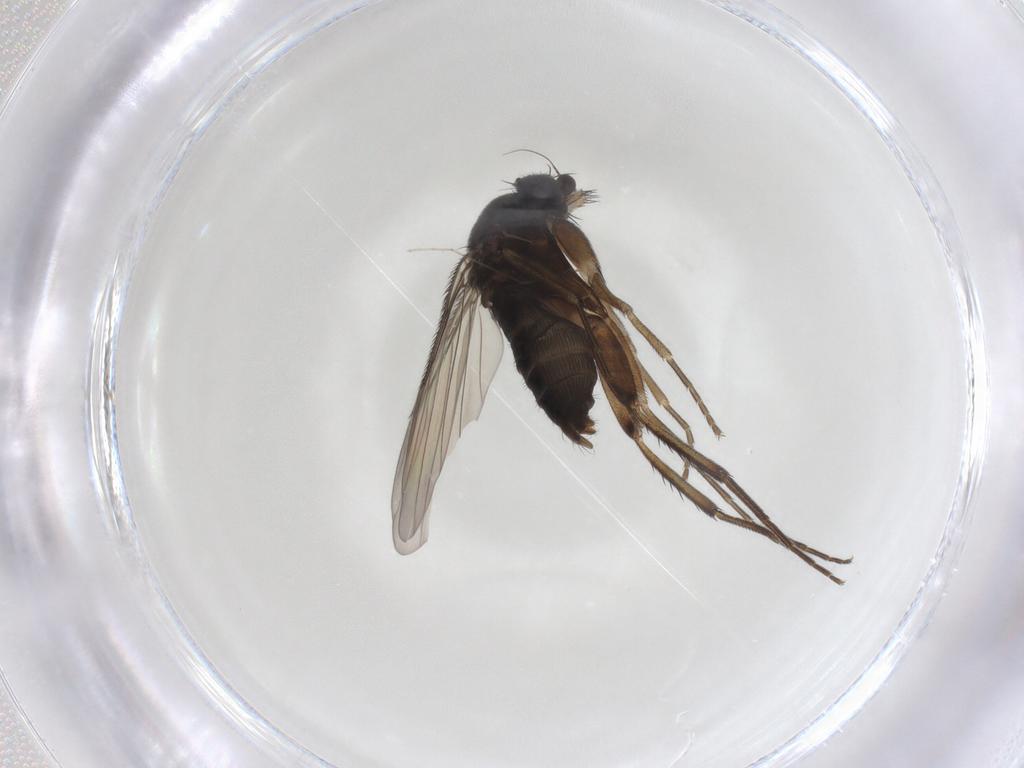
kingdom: Animalia
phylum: Arthropoda
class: Insecta
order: Diptera
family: Phoridae
